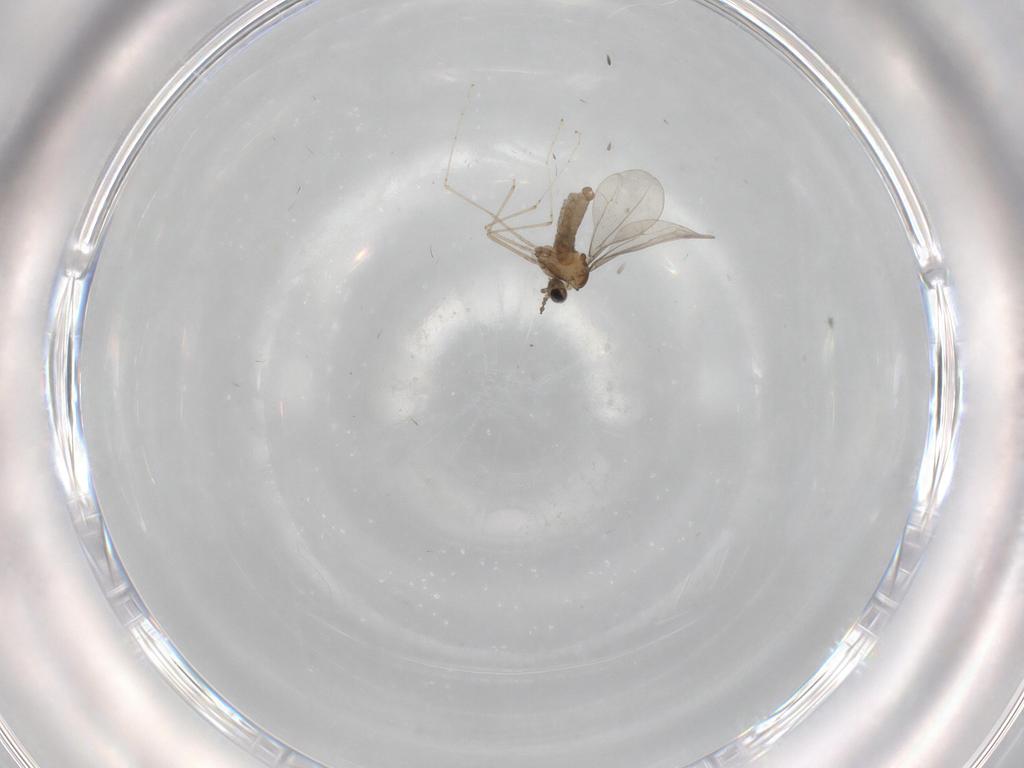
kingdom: Animalia
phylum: Arthropoda
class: Insecta
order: Diptera
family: Cecidomyiidae
